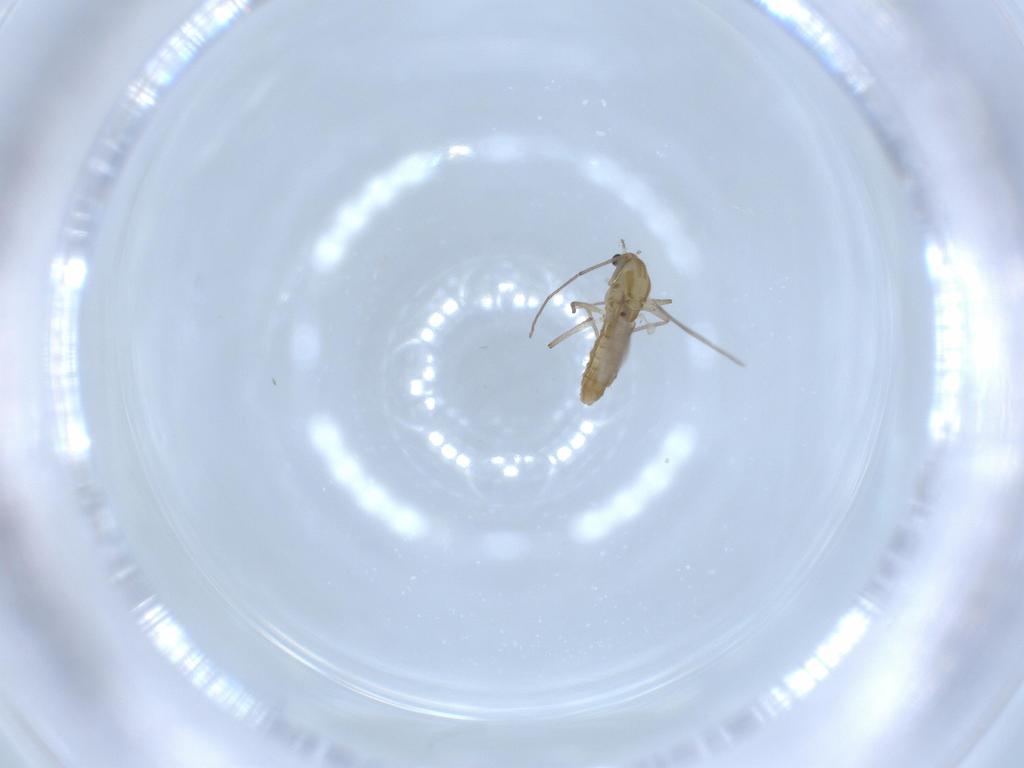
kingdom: Animalia
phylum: Arthropoda
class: Insecta
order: Diptera
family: Chironomidae
